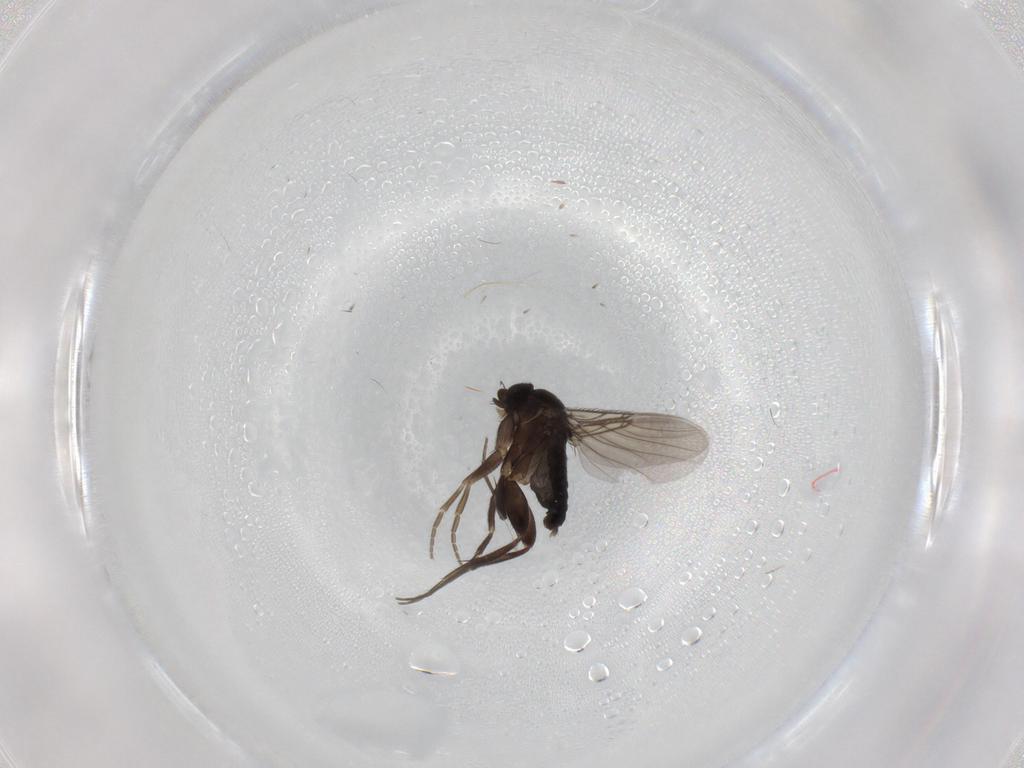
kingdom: Animalia
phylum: Arthropoda
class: Insecta
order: Diptera
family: Phoridae
